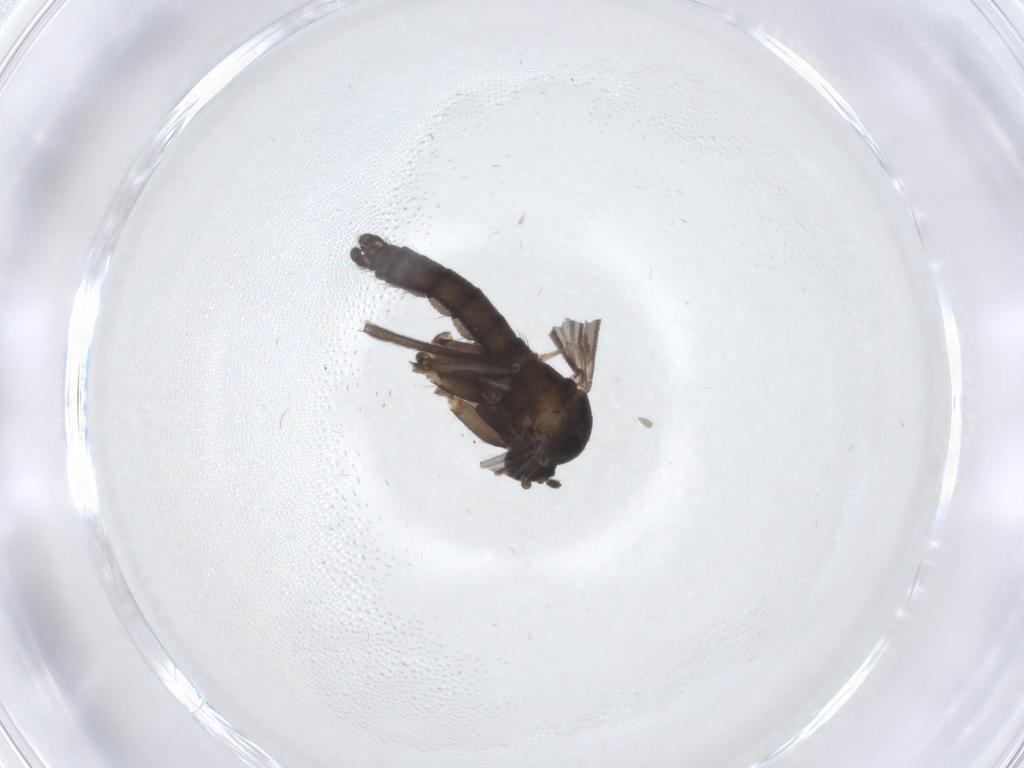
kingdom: Animalia
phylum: Arthropoda
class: Insecta
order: Diptera
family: Sciaridae
